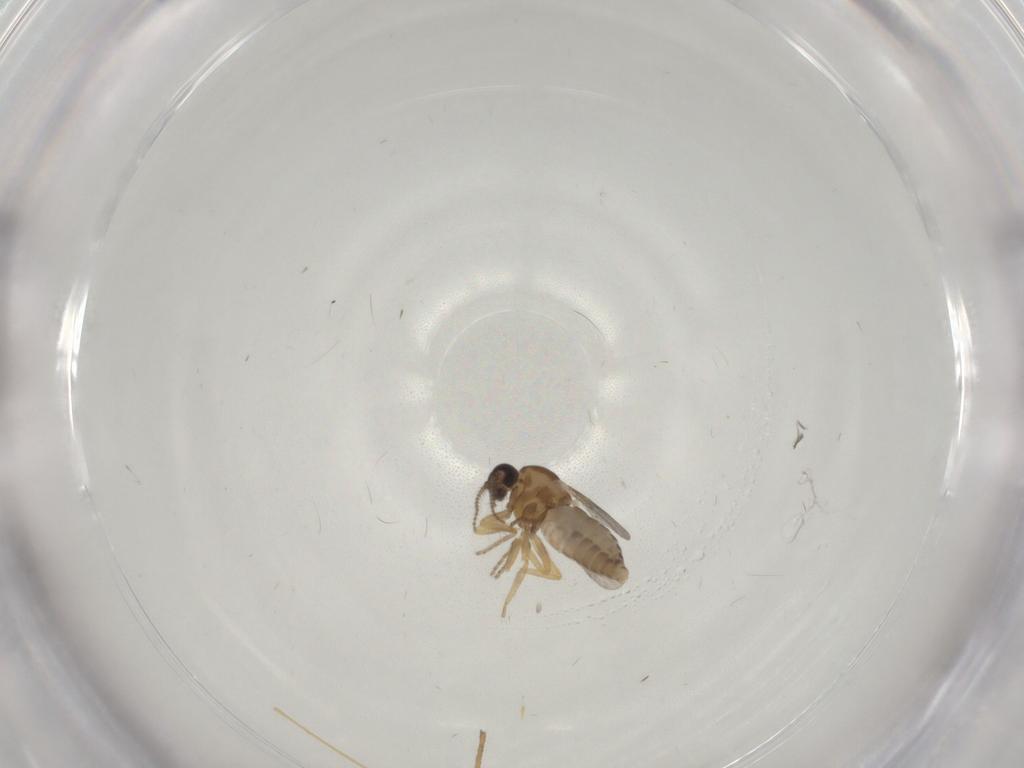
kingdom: Animalia
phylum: Arthropoda
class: Insecta
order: Diptera
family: Limoniidae
